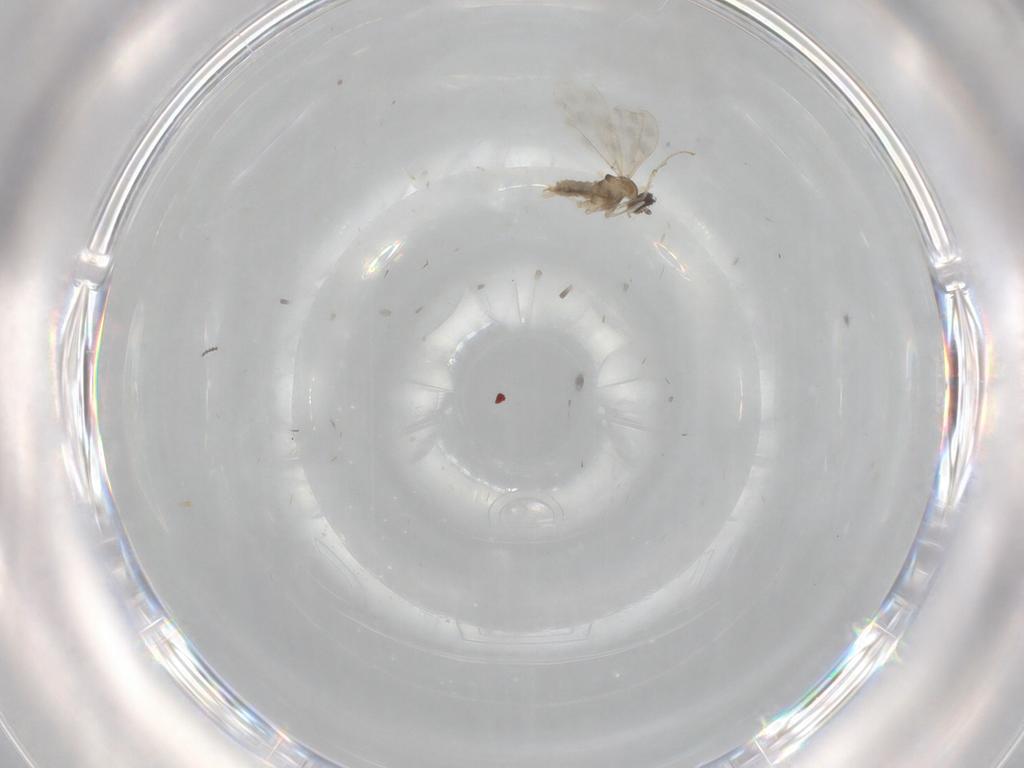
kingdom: Animalia
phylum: Arthropoda
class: Insecta
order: Diptera
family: Cecidomyiidae
